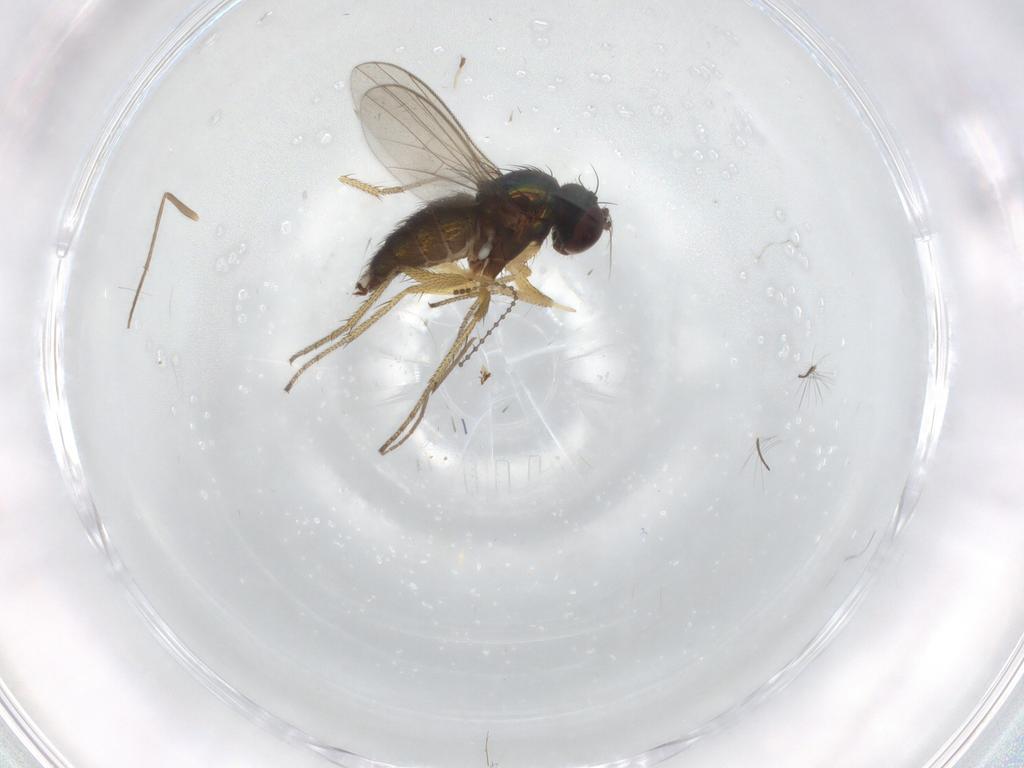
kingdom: Animalia
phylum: Arthropoda
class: Insecta
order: Diptera
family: Chironomidae
